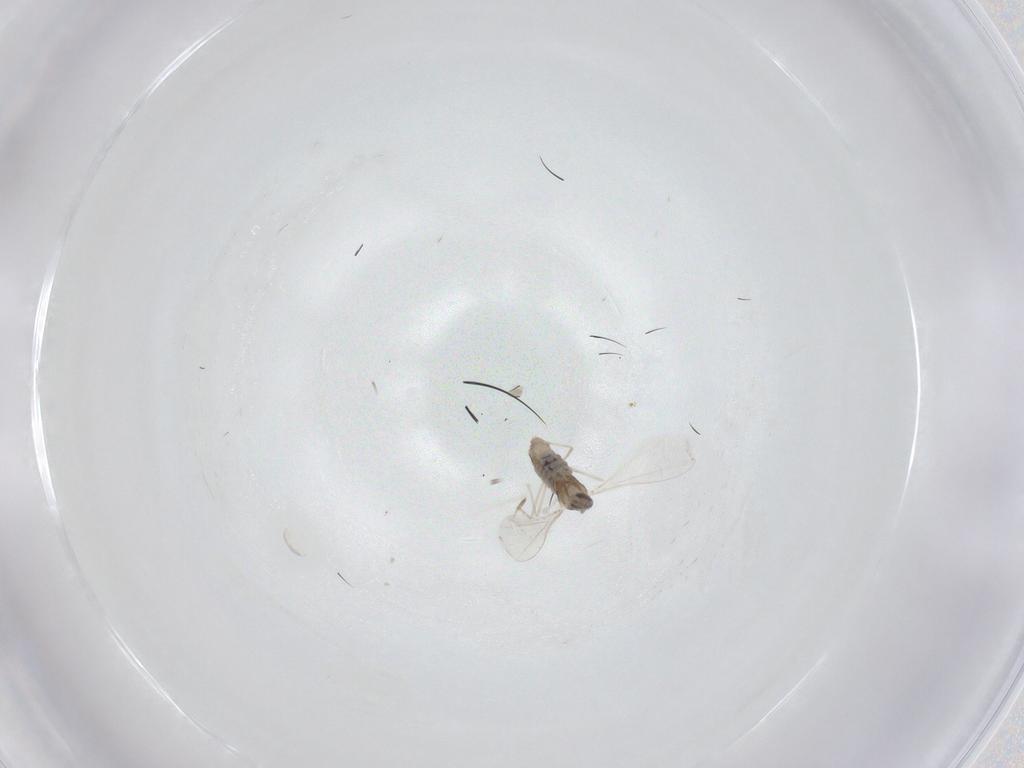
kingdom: Animalia
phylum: Arthropoda
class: Insecta
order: Diptera
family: Cecidomyiidae
